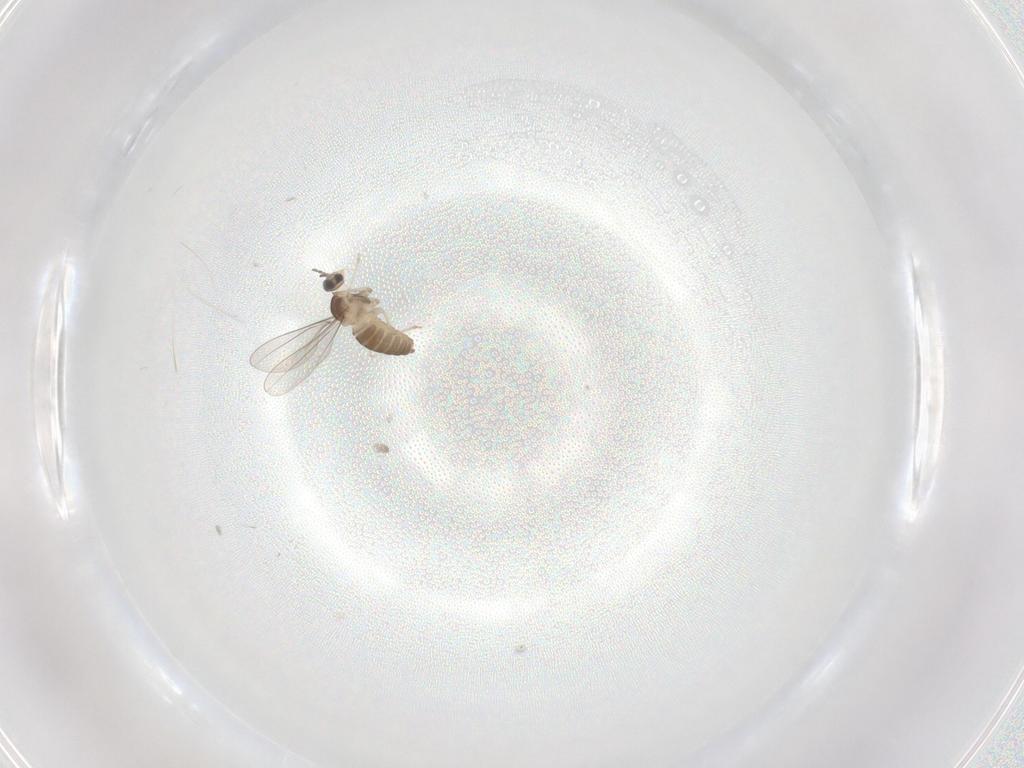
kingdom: Animalia
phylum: Arthropoda
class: Insecta
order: Diptera
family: Cecidomyiidae
